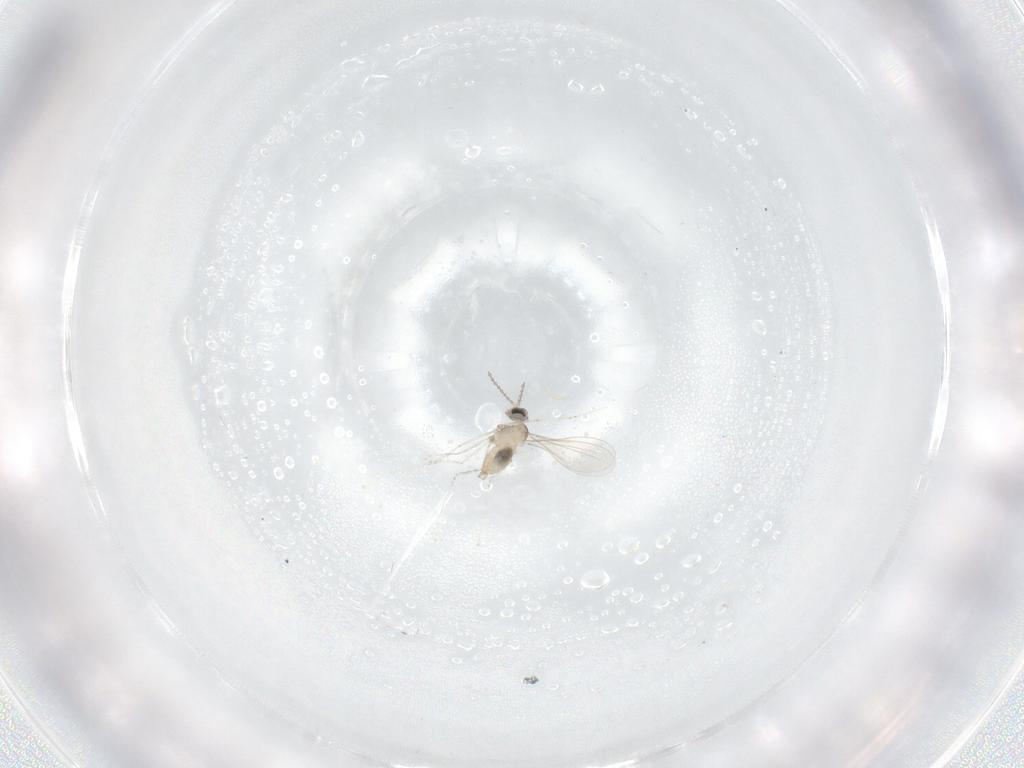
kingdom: Animalia
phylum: Arthropoda
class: Insecta
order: Diptera
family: Cecidomyiidae
